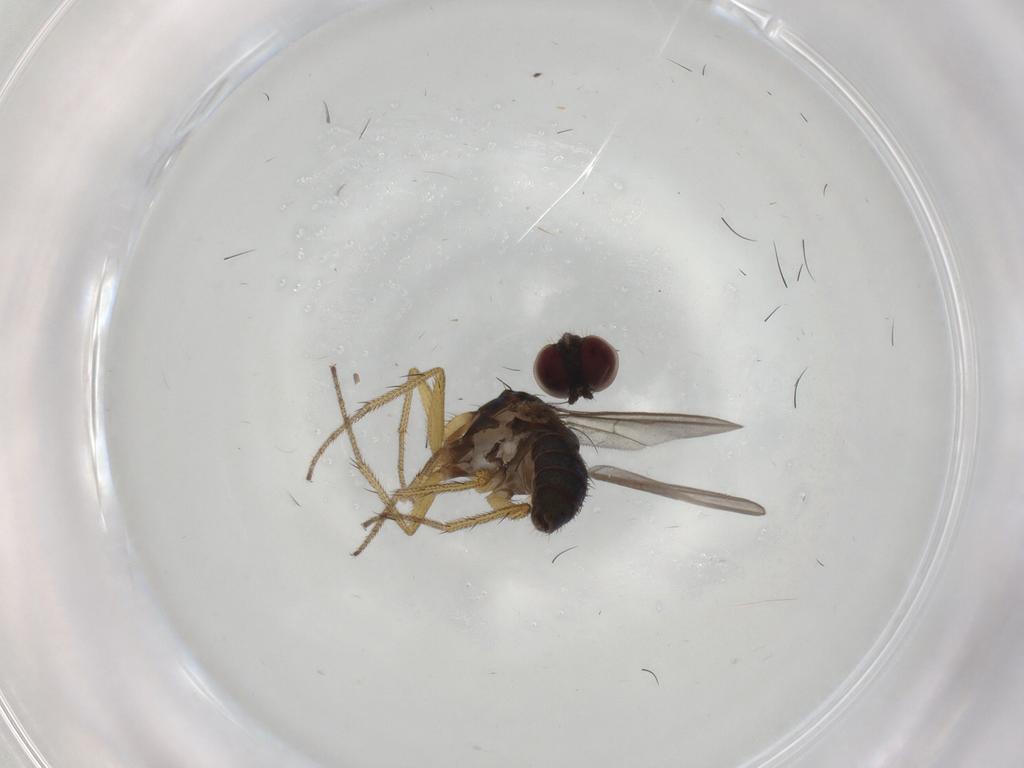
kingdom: Animalia
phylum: Arthropoda
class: Insecta
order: Diptera
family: Dolichopodidae
